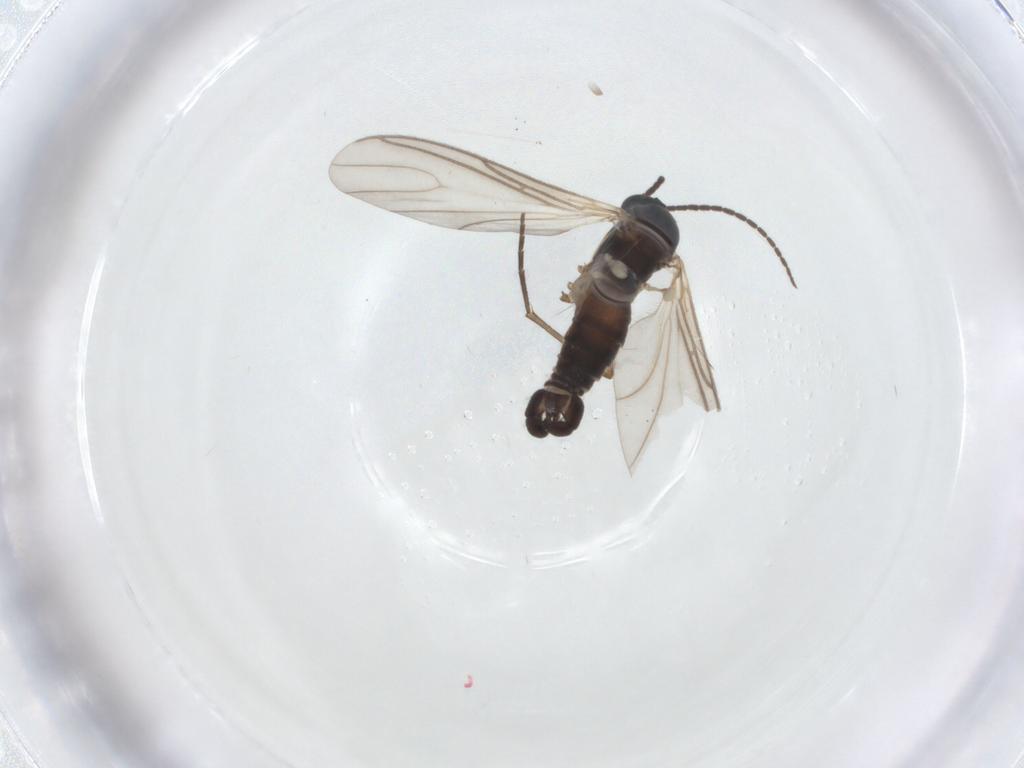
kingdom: Animalia
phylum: Arthropoda
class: Insecta
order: Diptera
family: Sciaridae
